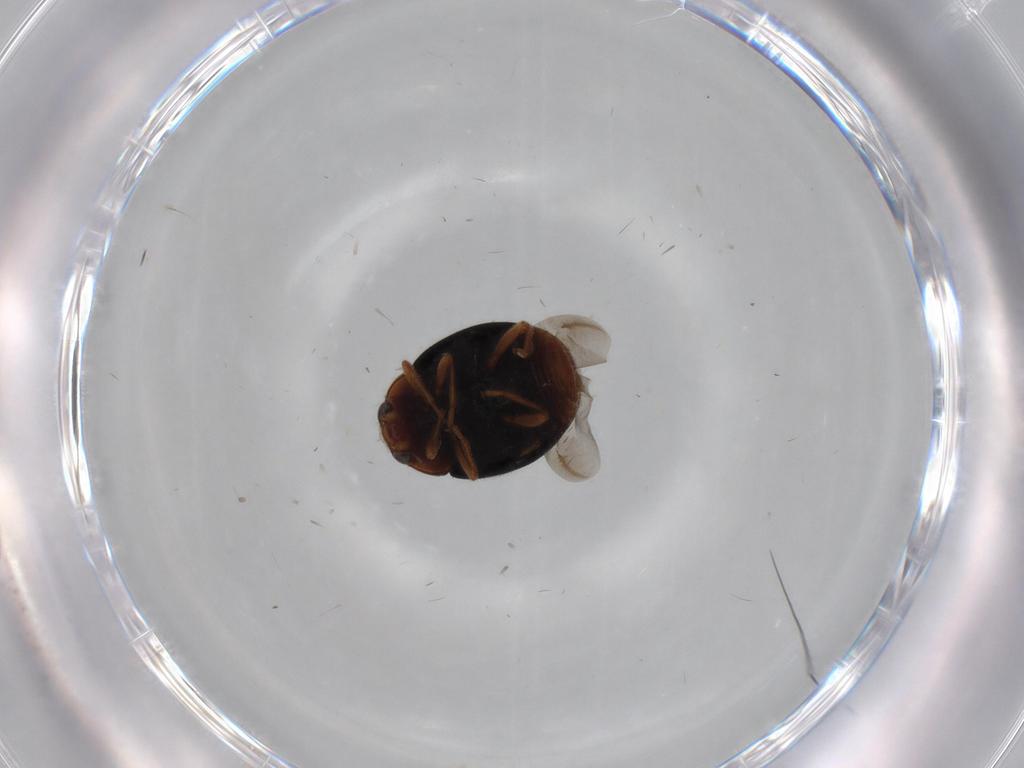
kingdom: Animalia
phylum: Arthropoda
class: Insecta
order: Coleoptera
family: Coccinellidae
